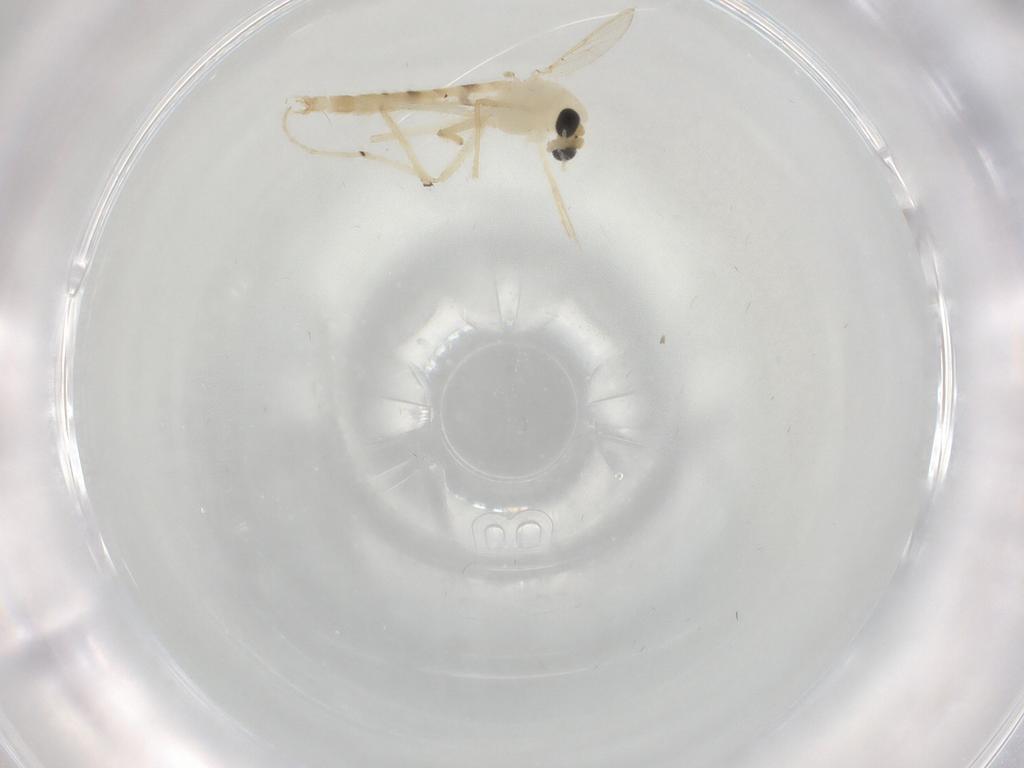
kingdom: Animalia
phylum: Arthropoda
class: Insecta
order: Diptera
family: Chironomidae
